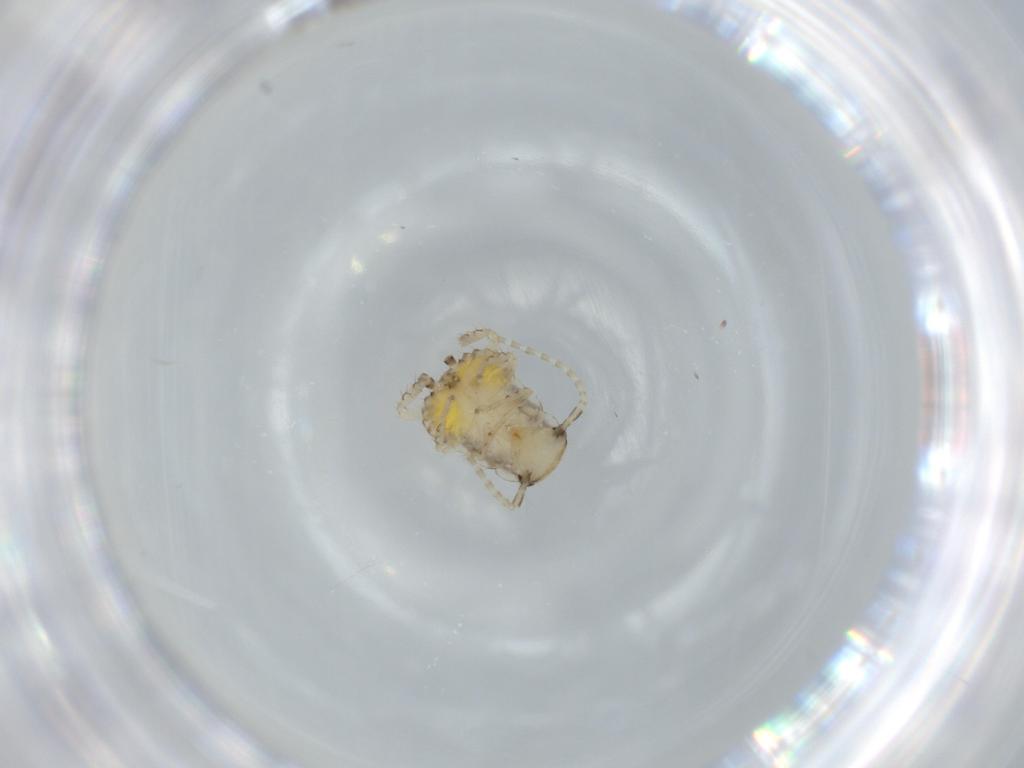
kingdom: Animalia
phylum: Arthropoda
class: Insecta
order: Blattodea
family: Ectobiidae
